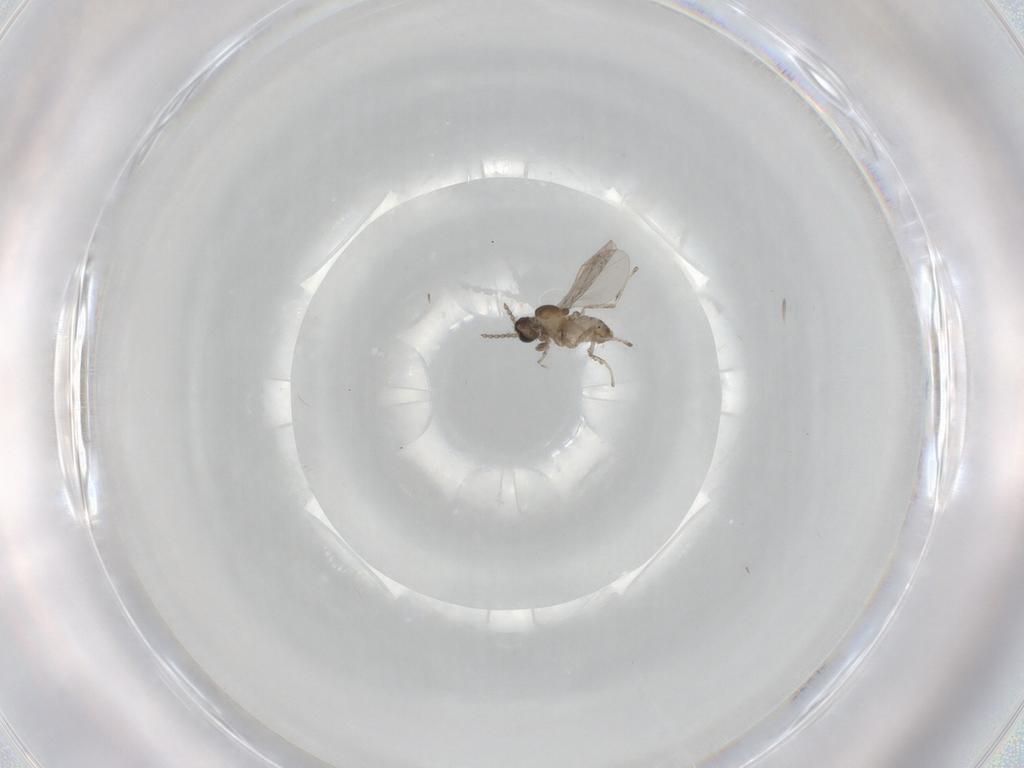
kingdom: Animalia
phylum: Arthropoda
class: Insecta
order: Diptera
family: Cecidomyiidae
